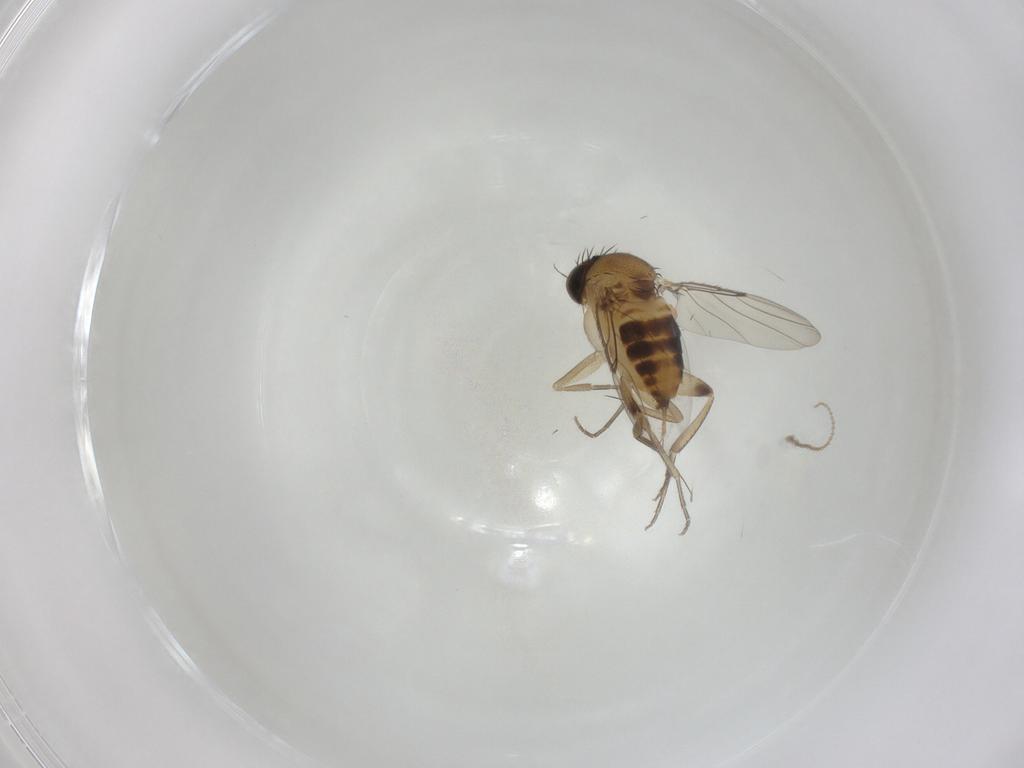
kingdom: Animalia
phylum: Arthropoda
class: Insecta
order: Diptera
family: Phoridae
